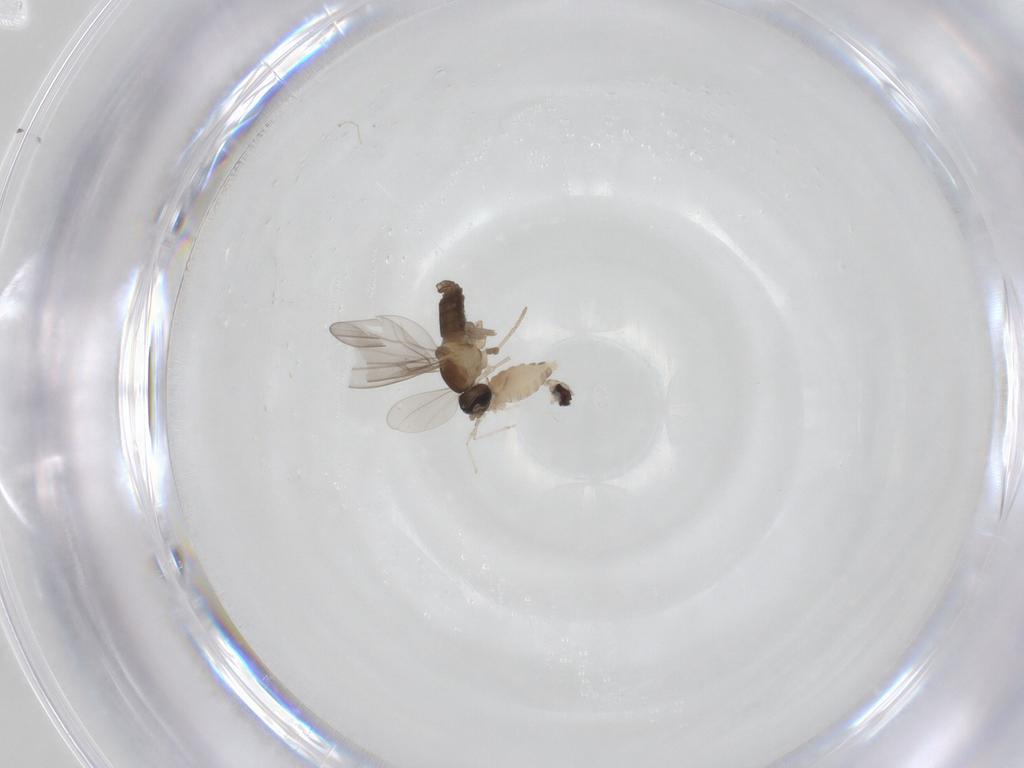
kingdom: Animalia
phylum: Arthropoda
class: Insecta
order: Diptera
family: Cecidomyiidae
